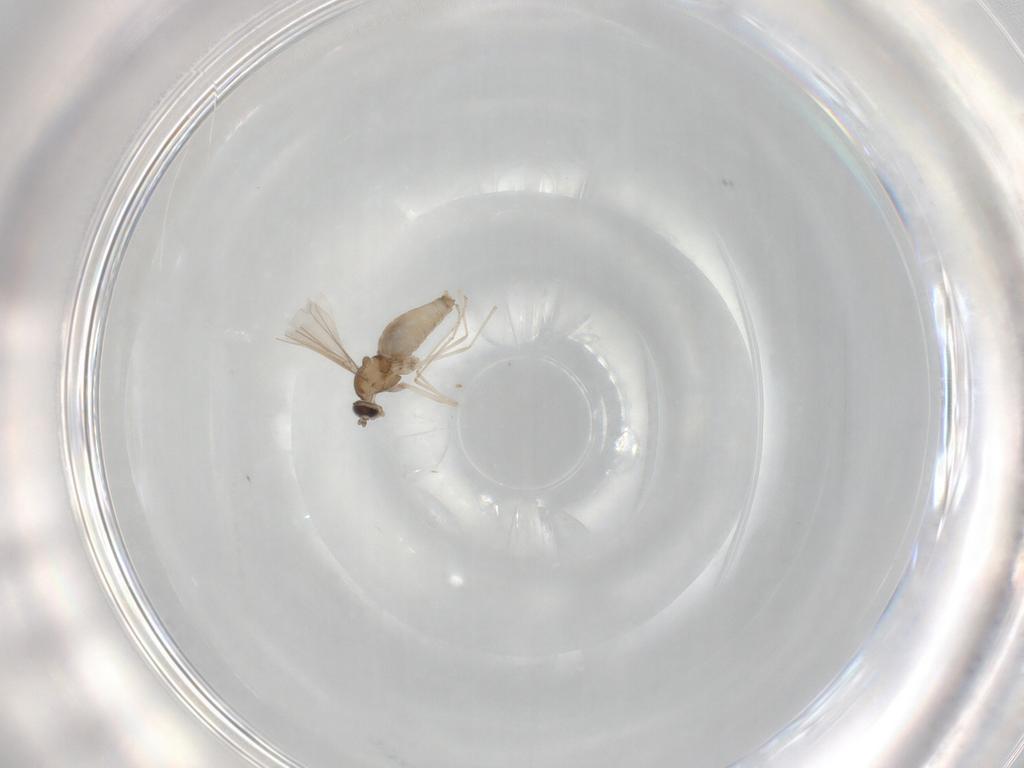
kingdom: Animalia
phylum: Arthropoda
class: Insecta
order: Diptera
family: Cecidomyiidae
